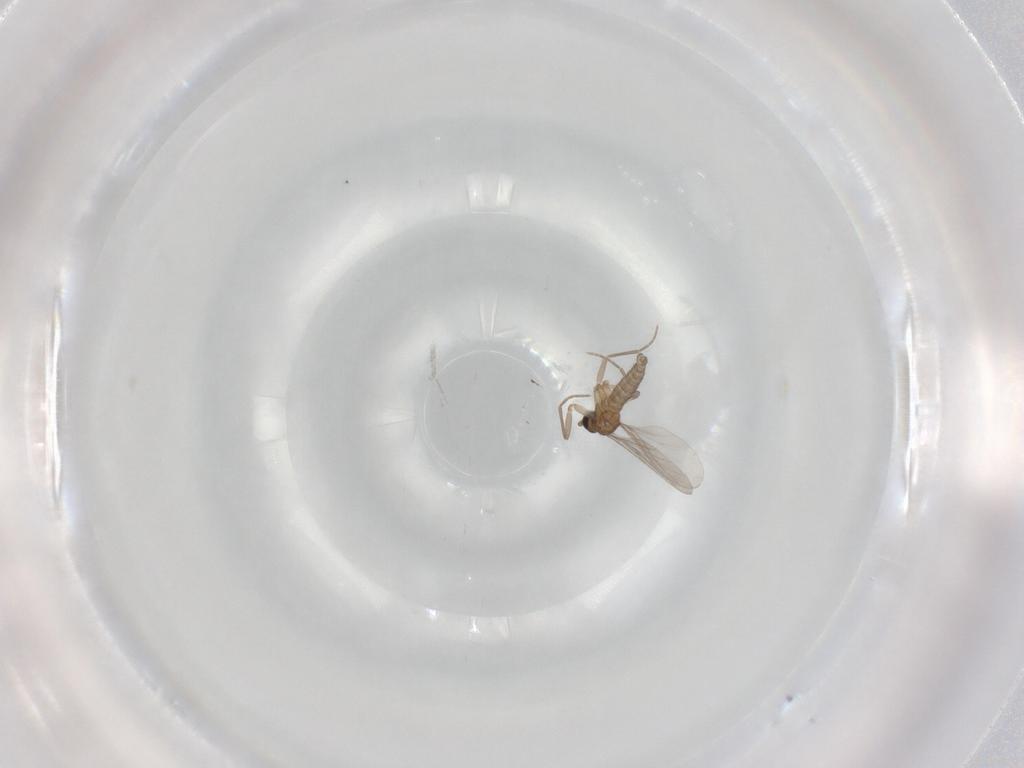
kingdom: Animalia
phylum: Arthropoda
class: Insecta
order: Diptera
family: Sciaridae
